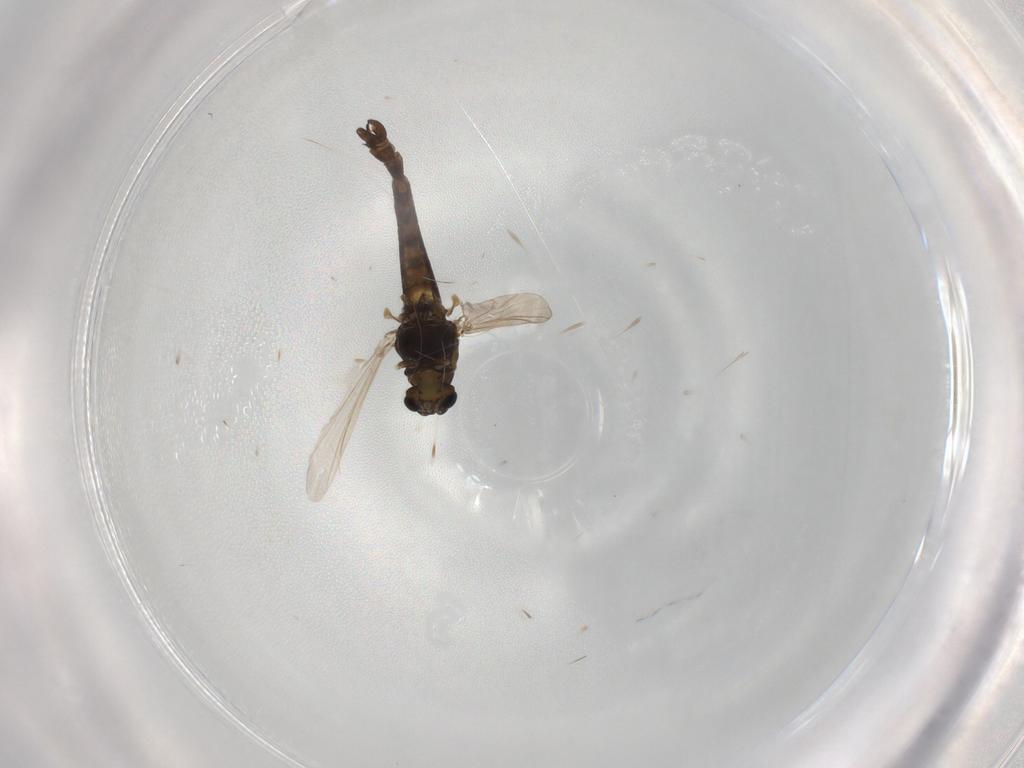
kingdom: Animalia
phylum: Arthropoda
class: Insecta
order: Diptera
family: Chironomidae
